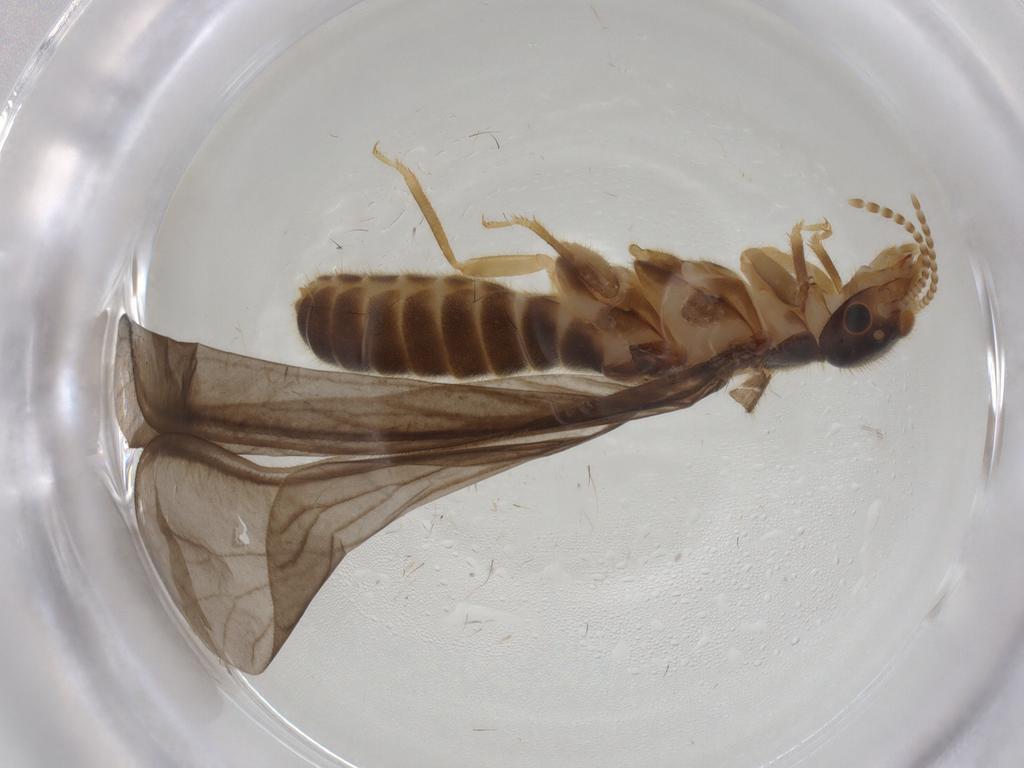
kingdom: Animalia
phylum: Arthropoda
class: Insecta
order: Blattodea
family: Ectobiidae
